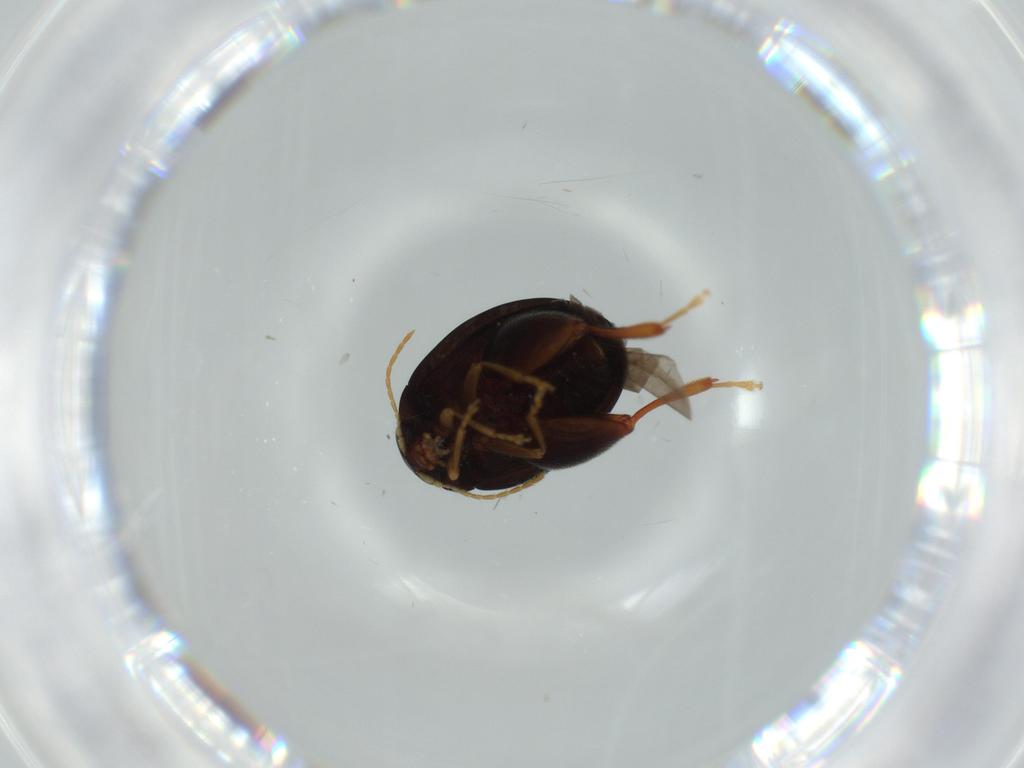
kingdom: Animalia
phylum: Arthropoda
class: Insecta
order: Coleoptera
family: Chrysomelidae
